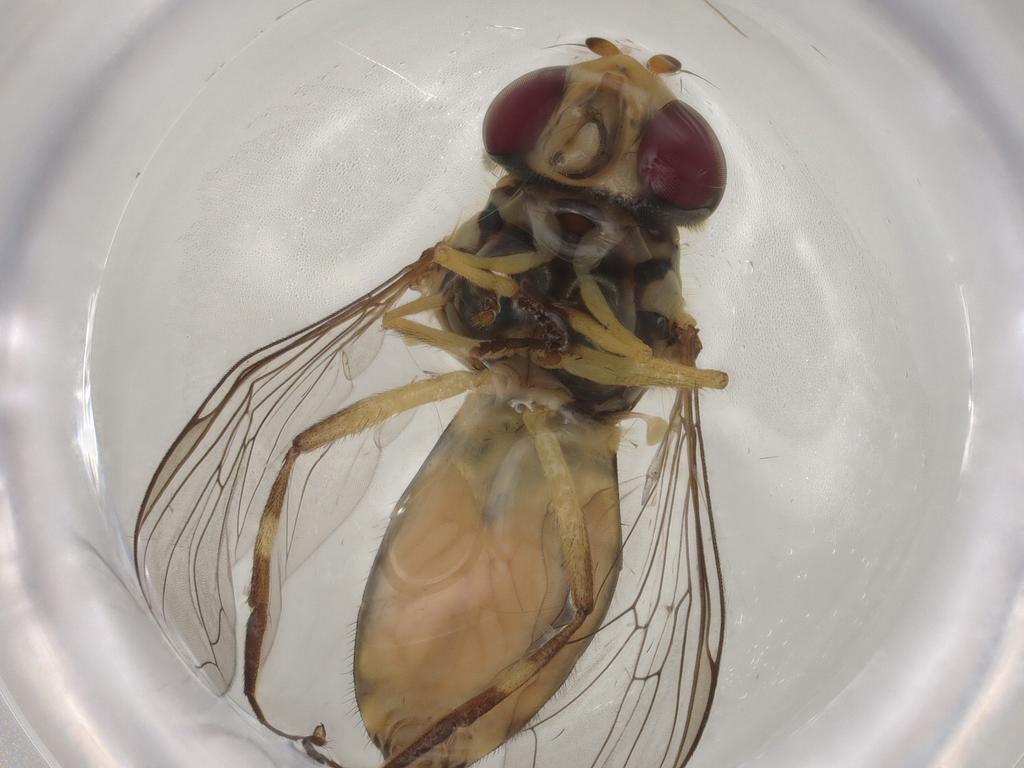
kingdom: Animalia
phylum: Arthropoda
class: Insecta
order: Diptera
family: Syrphidae
